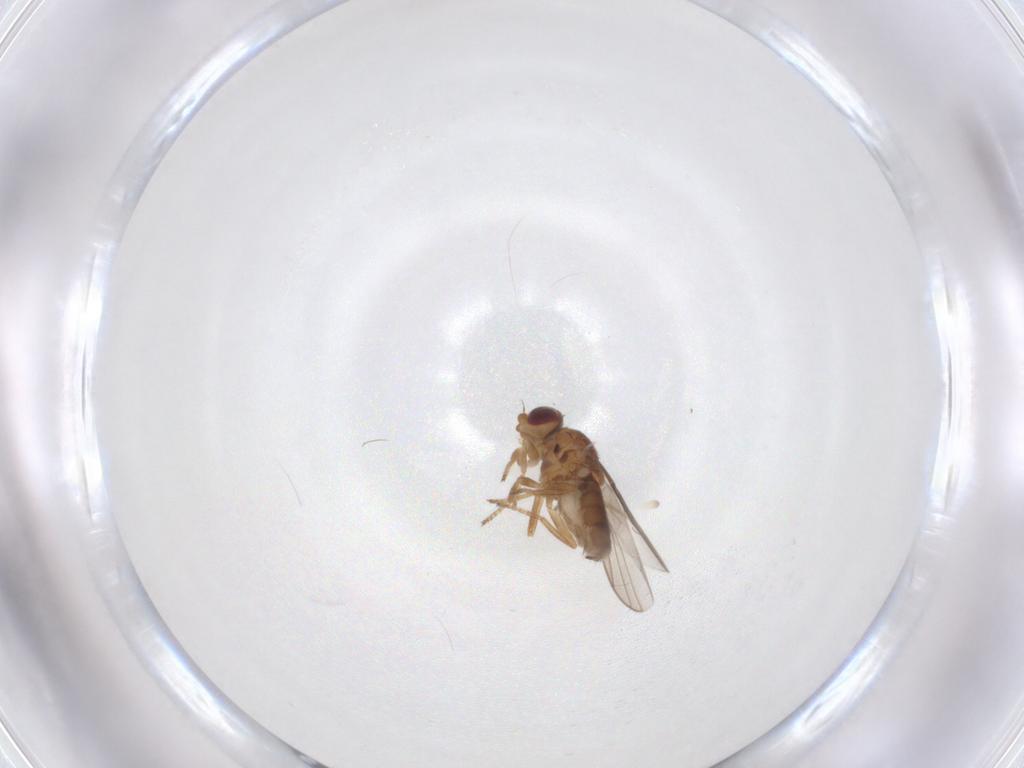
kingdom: Animalia
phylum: Arthropoda
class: Insecta
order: Diptera
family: Chloropidae
